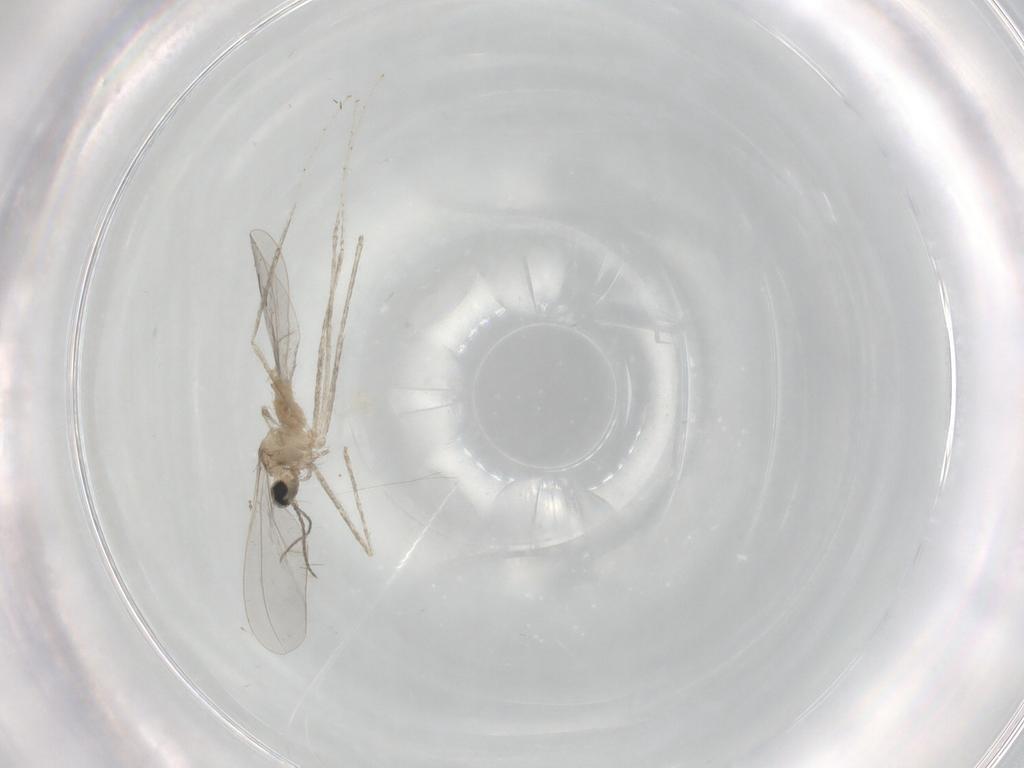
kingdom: Animalia
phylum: Arthropoda
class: Insecta
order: Diptera
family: Cecidomyiidae
